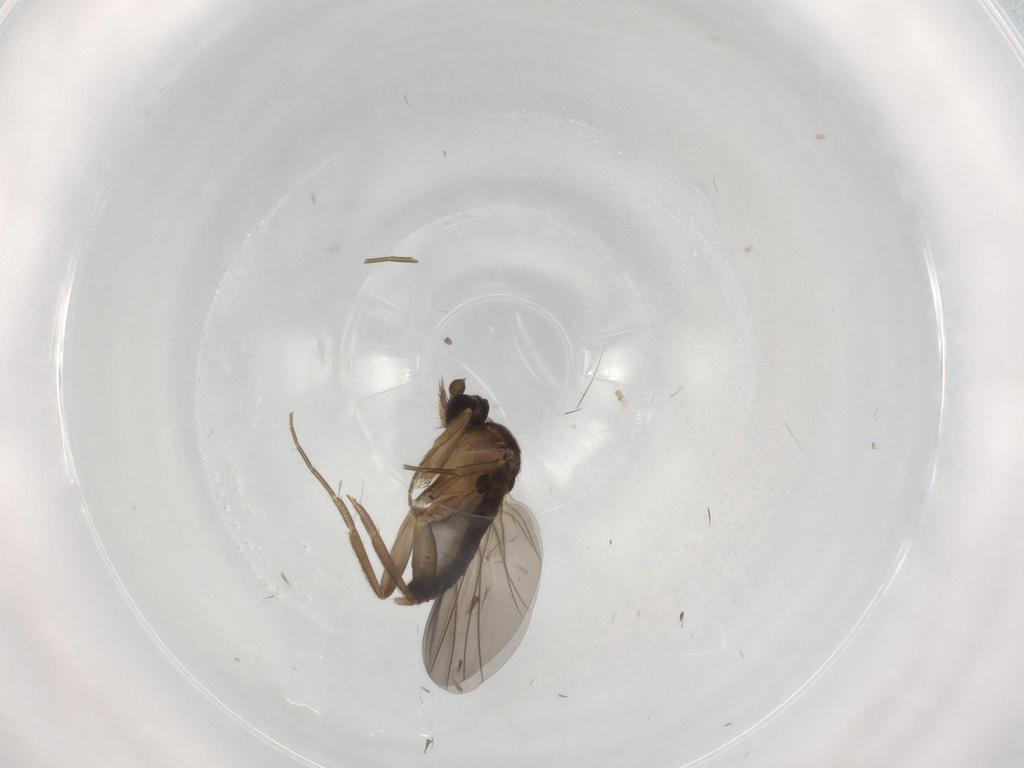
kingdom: Animalia
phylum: Arthropoda
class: Insecta
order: Diptera
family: Phoridae
